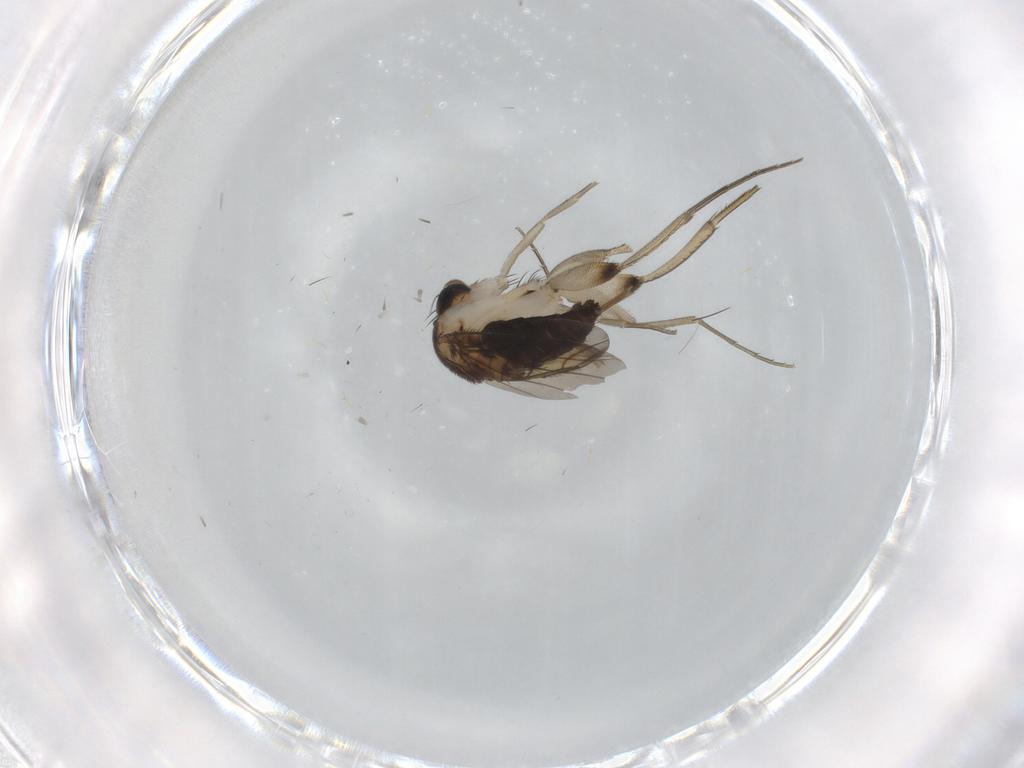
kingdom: Animalia
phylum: Arthropoda
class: Insecta
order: Diptera
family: Phoridae
